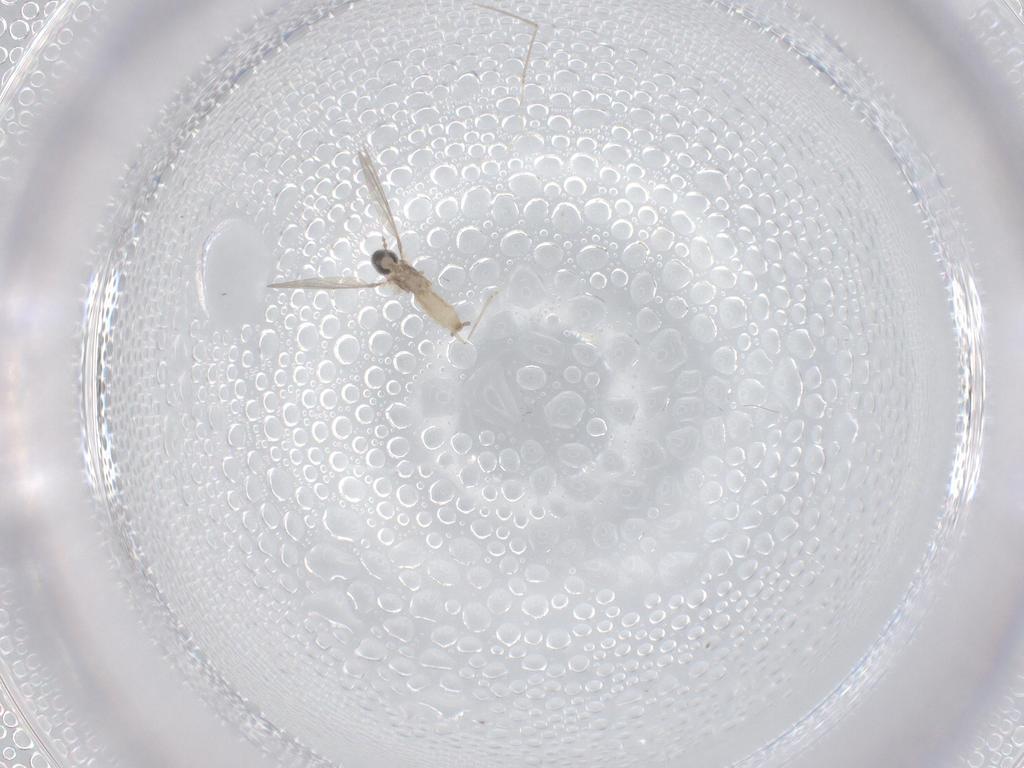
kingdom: Animalia
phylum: Arthropoda
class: Insecta
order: Diptera
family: Cecidomyiidae
